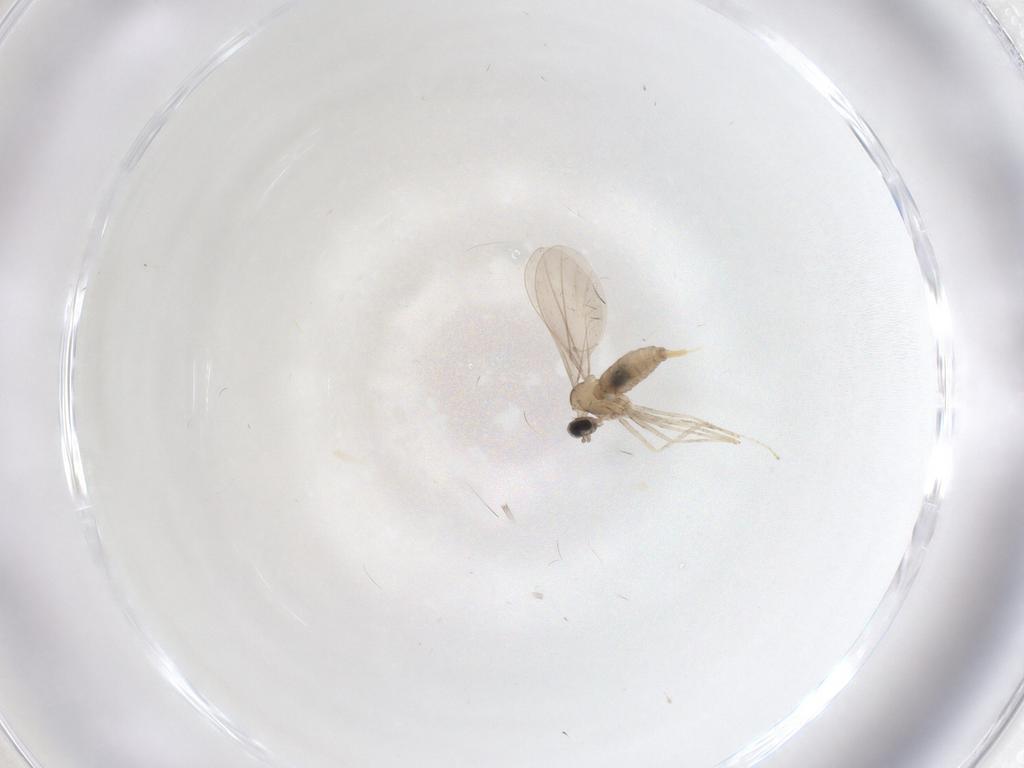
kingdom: Animalia
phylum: Arthropoda
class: Insecta
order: Diptera
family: Cecidomyiidae
